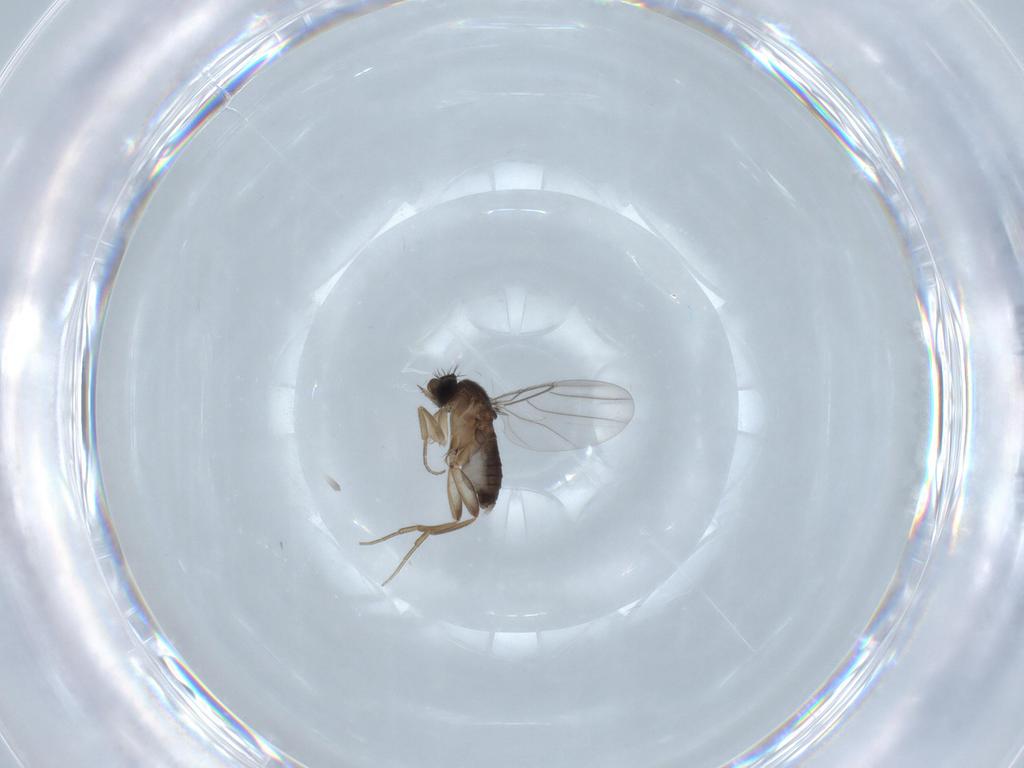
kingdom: Animalia
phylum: Arthropoda
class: Insecta
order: Diptera
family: Phoridae
